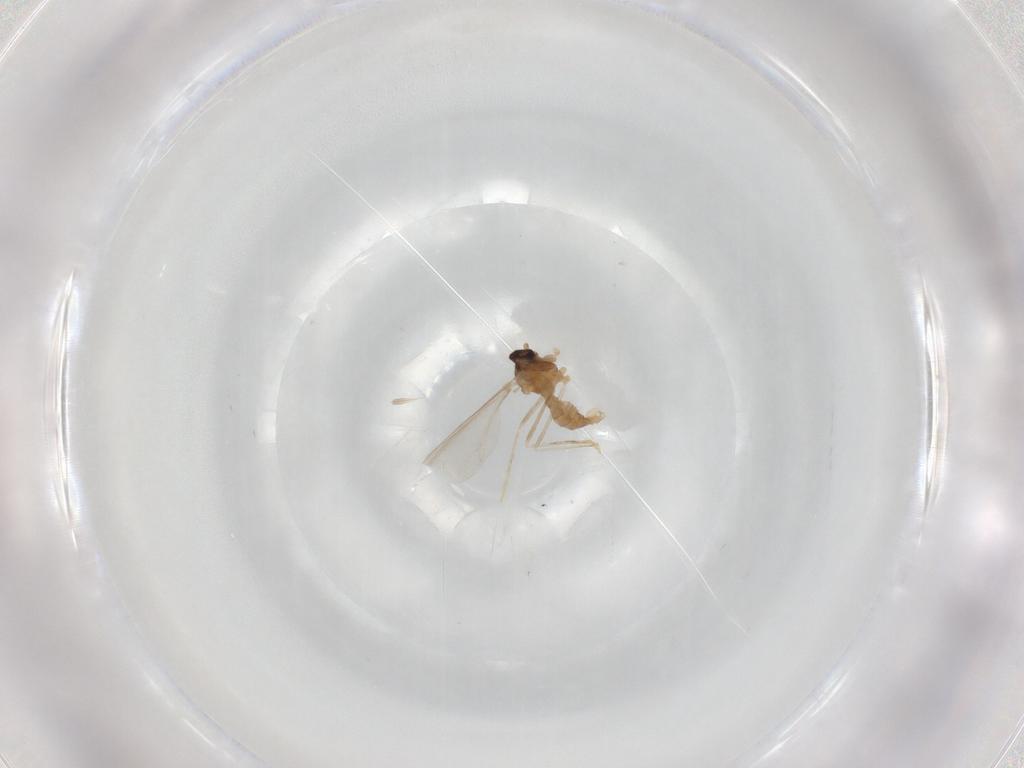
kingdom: Animalia
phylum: Arthropoda
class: Insecta
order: Diptera
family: Cecidomyiidae
